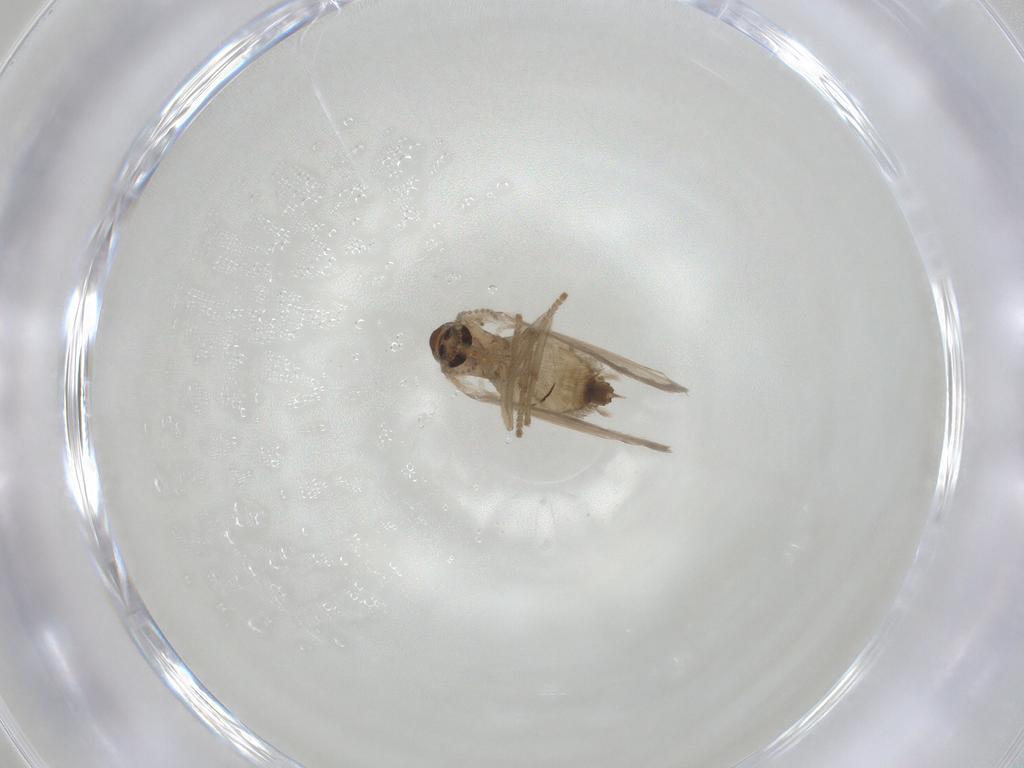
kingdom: Animalia
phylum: Arthropoda
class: Insecta
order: Diptera
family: Psychodidae
